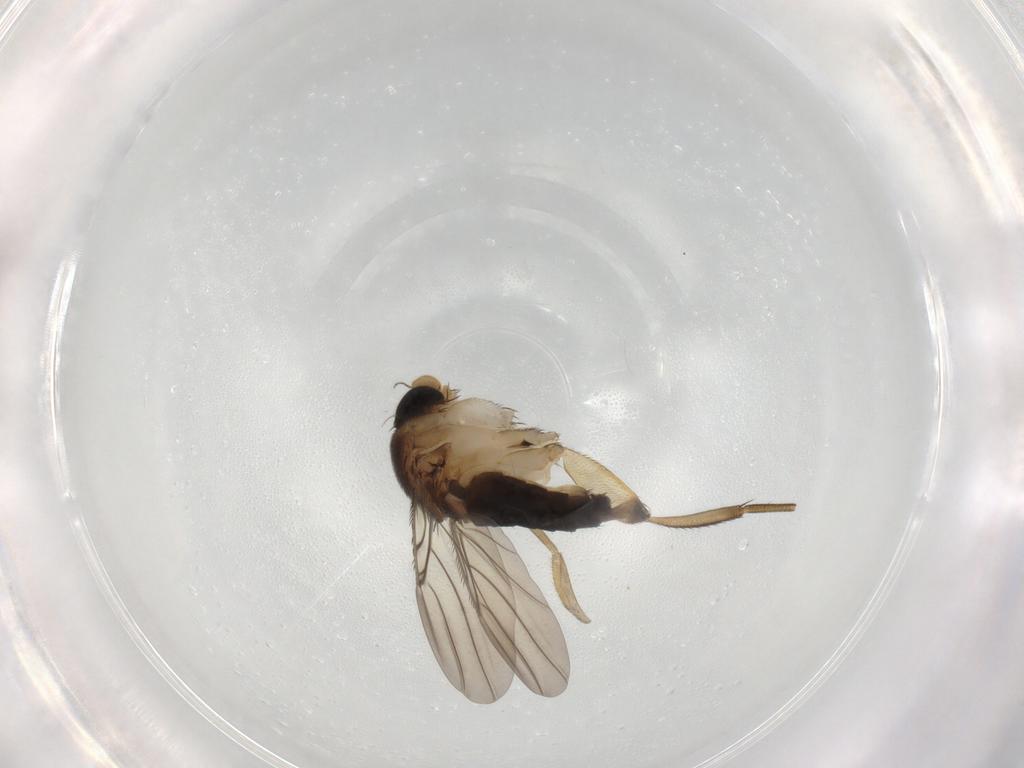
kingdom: Animalia
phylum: Arthropoda
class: Insecta
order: Diptera
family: Phoridae
